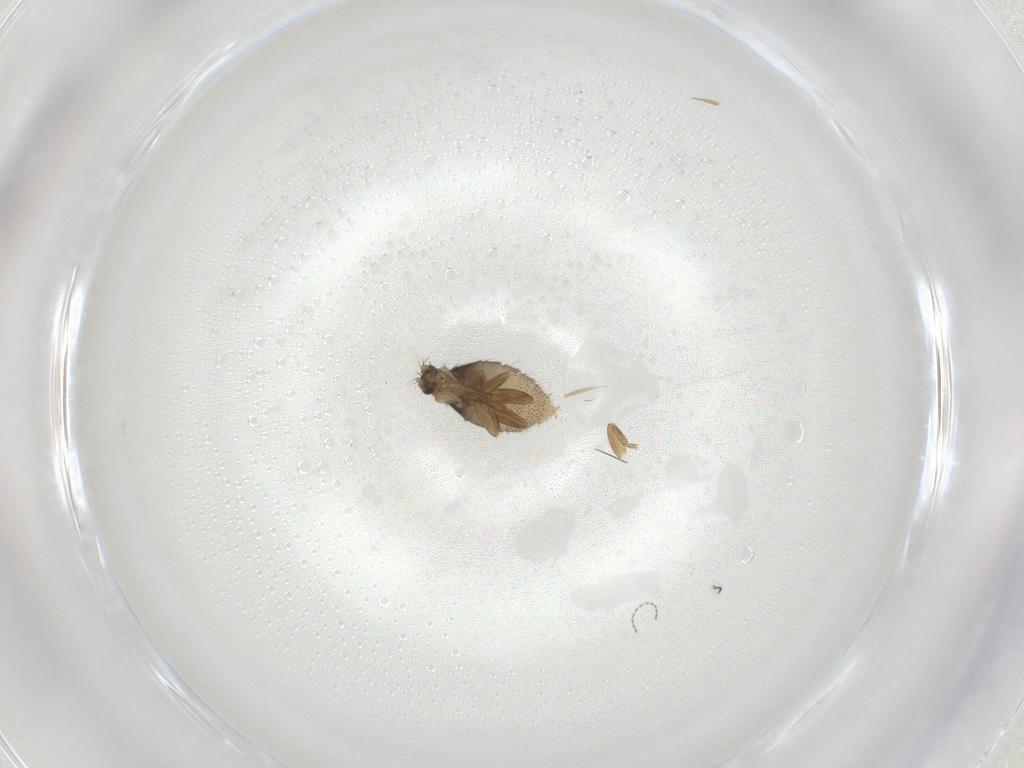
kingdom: Animalia
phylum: Arthropoda
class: Insecta
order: Diptera
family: Phoridae
